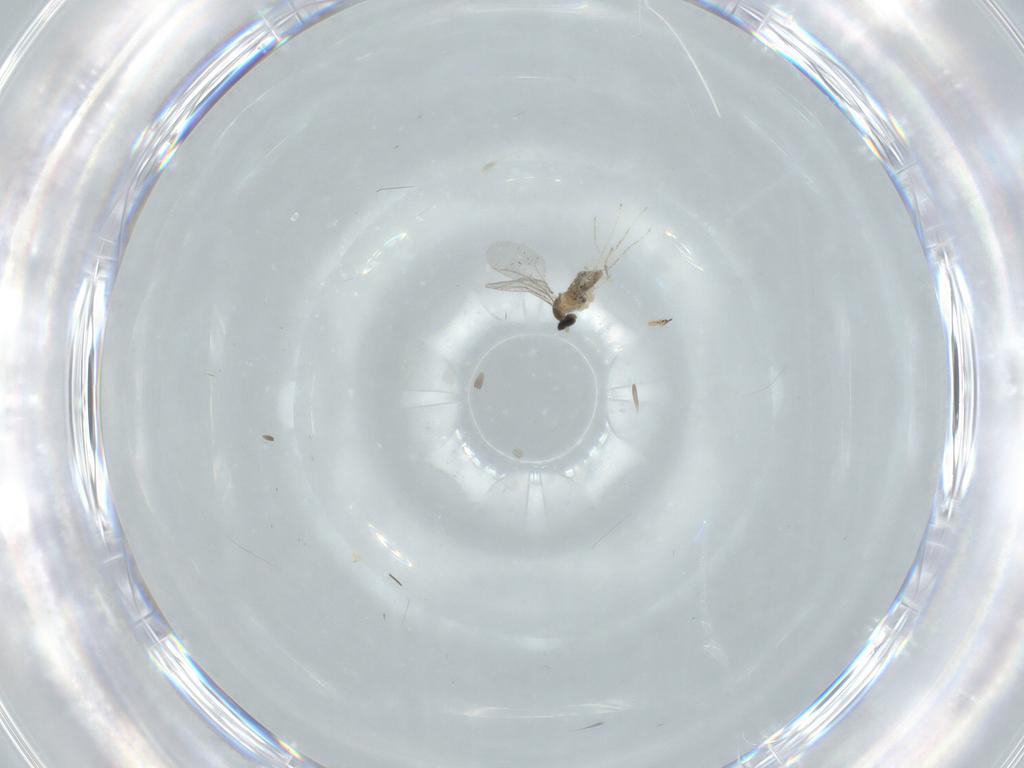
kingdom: Animalia
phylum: Arthropoda
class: Insecta
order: Diptera
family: Cecidomyiidae
